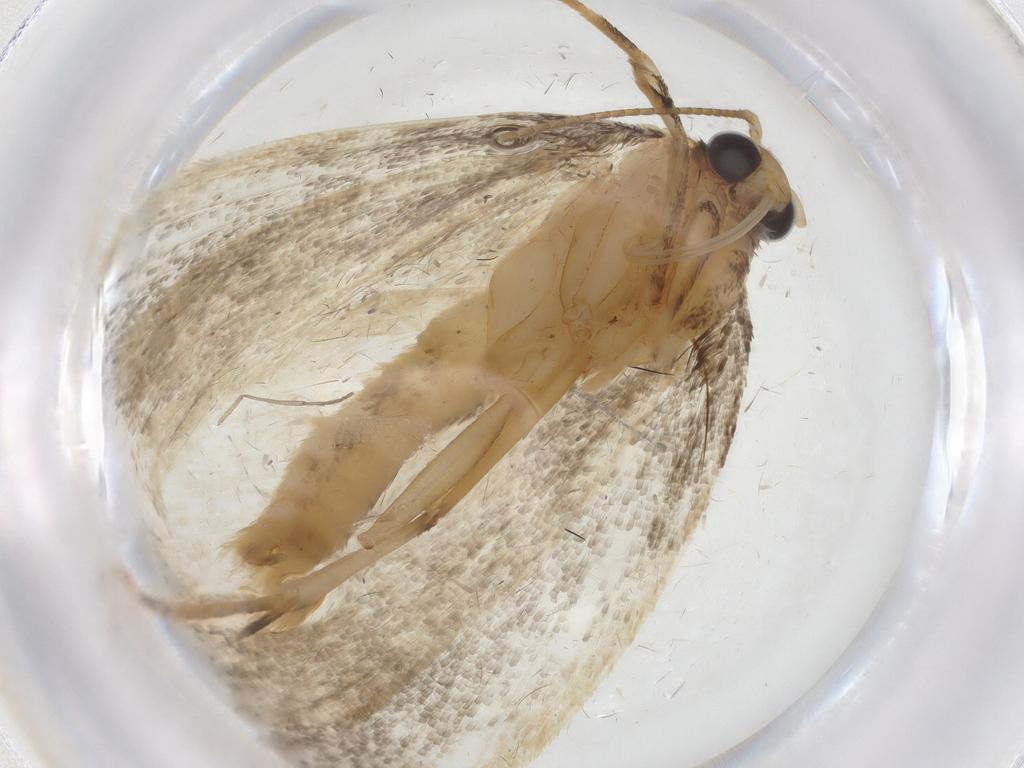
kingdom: Animalia
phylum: Arthropoda
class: Insecta
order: Lepidoptera
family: Oecophoridae
